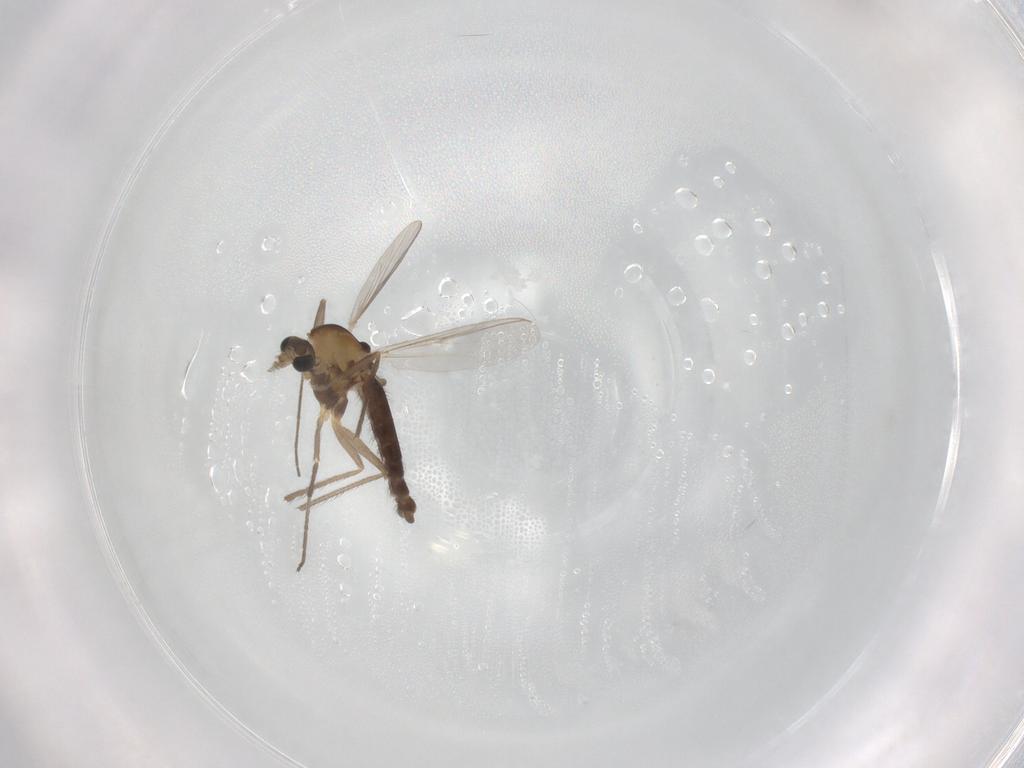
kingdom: Animalia
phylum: Arthropoda
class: Insecta
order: Diptera
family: Chironomidae
